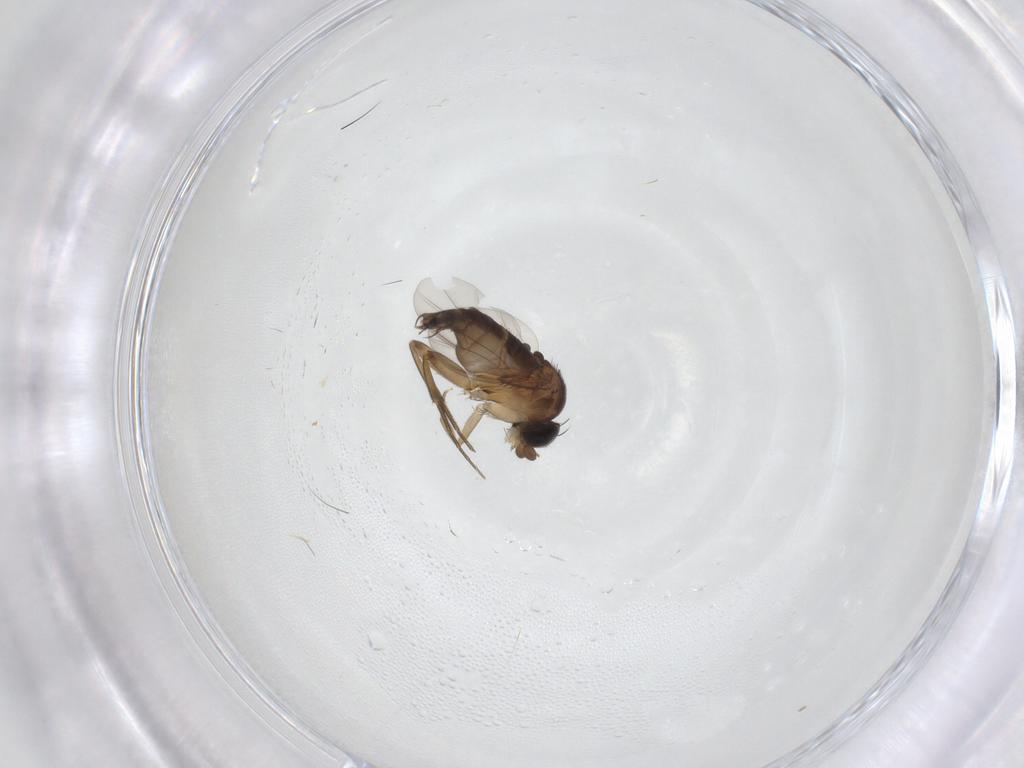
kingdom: Animalia
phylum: Arthropoda
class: Insecta
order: Diptera
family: Cecidomyiidae
